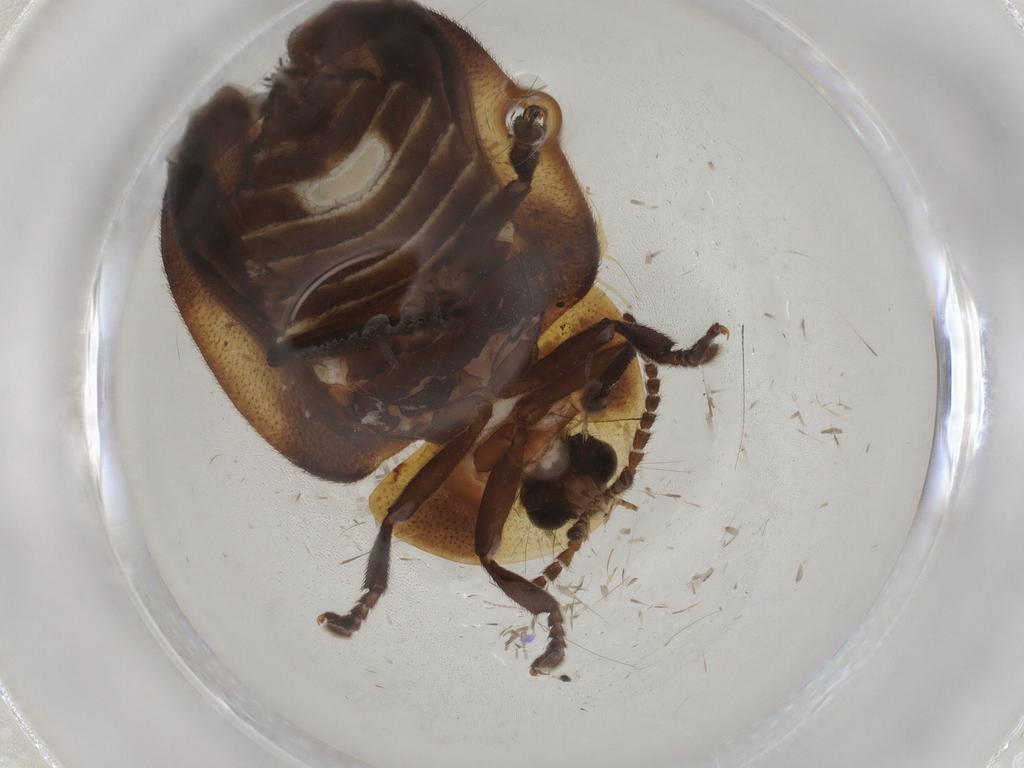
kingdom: Animalia
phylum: Arthropoda
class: Insecta
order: Coleoptera
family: Lampyridae
